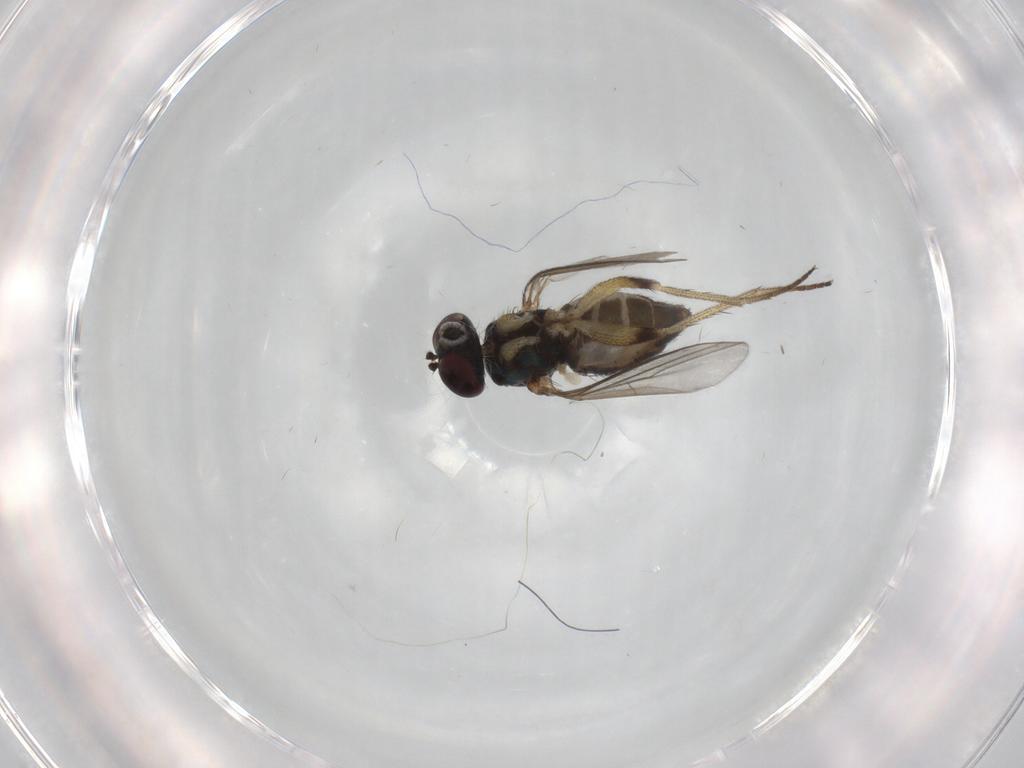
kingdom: Animalia
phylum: Arthropoda
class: Insecta
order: Diptera
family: Dolichopodidae
